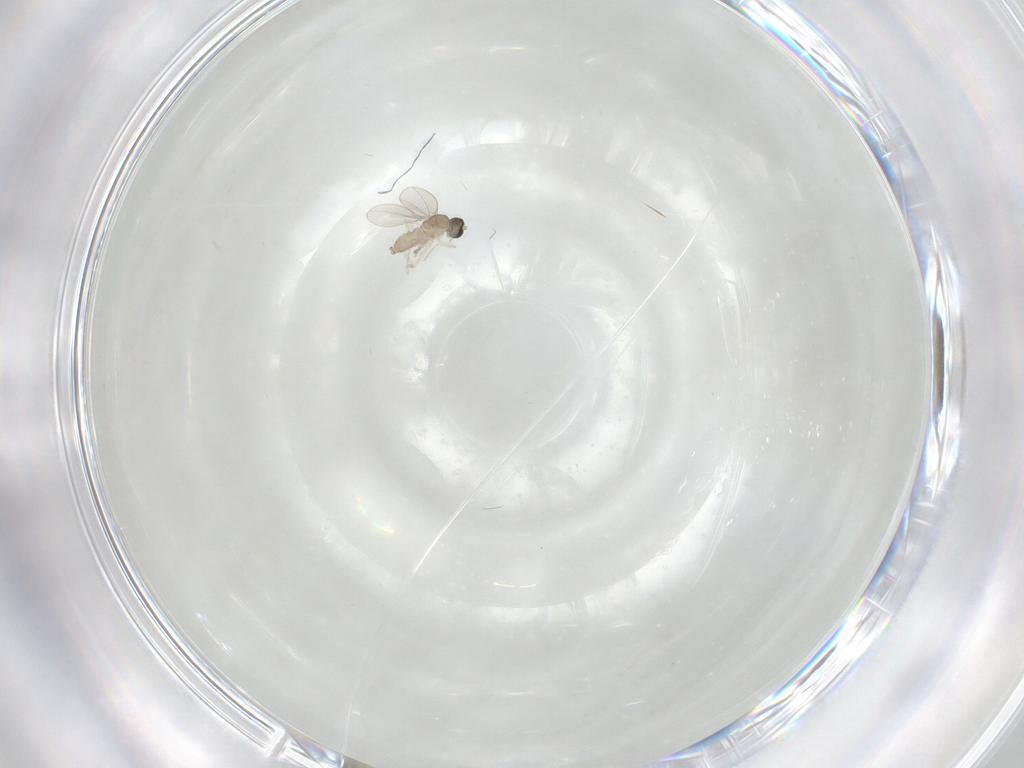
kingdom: Animalia
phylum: Arthropoda
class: Insecta
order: Diptera
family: Cecidomyiidae
